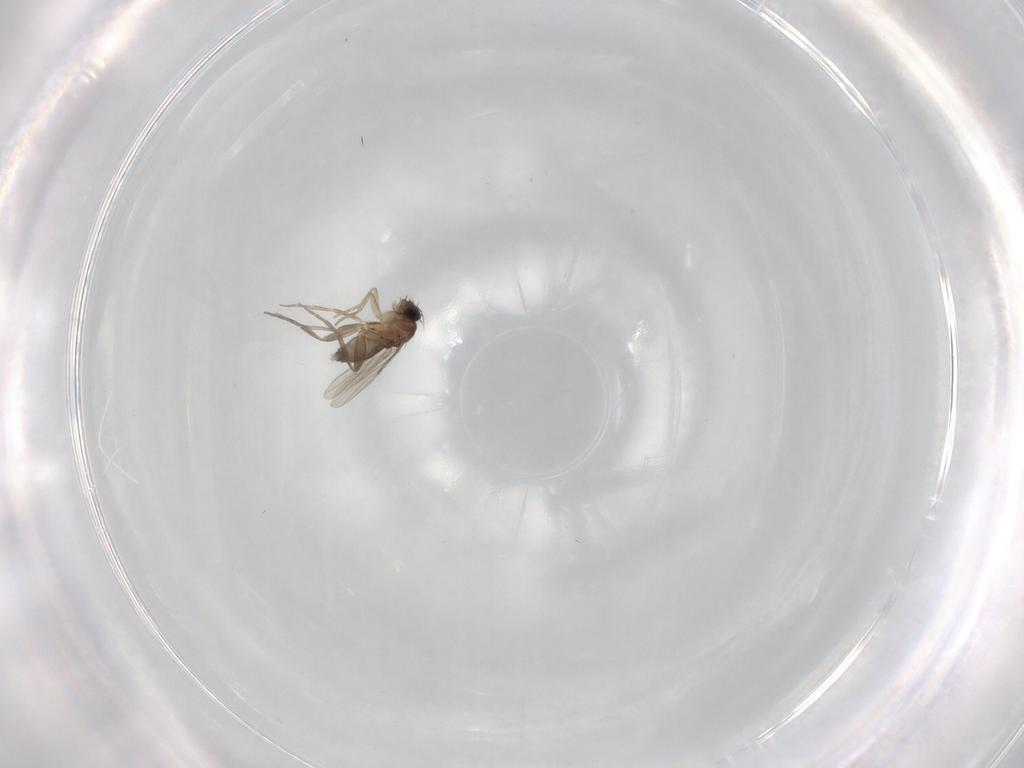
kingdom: Animalia
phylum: Arthropoda
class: Insecta
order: Diptera
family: Phoridae
